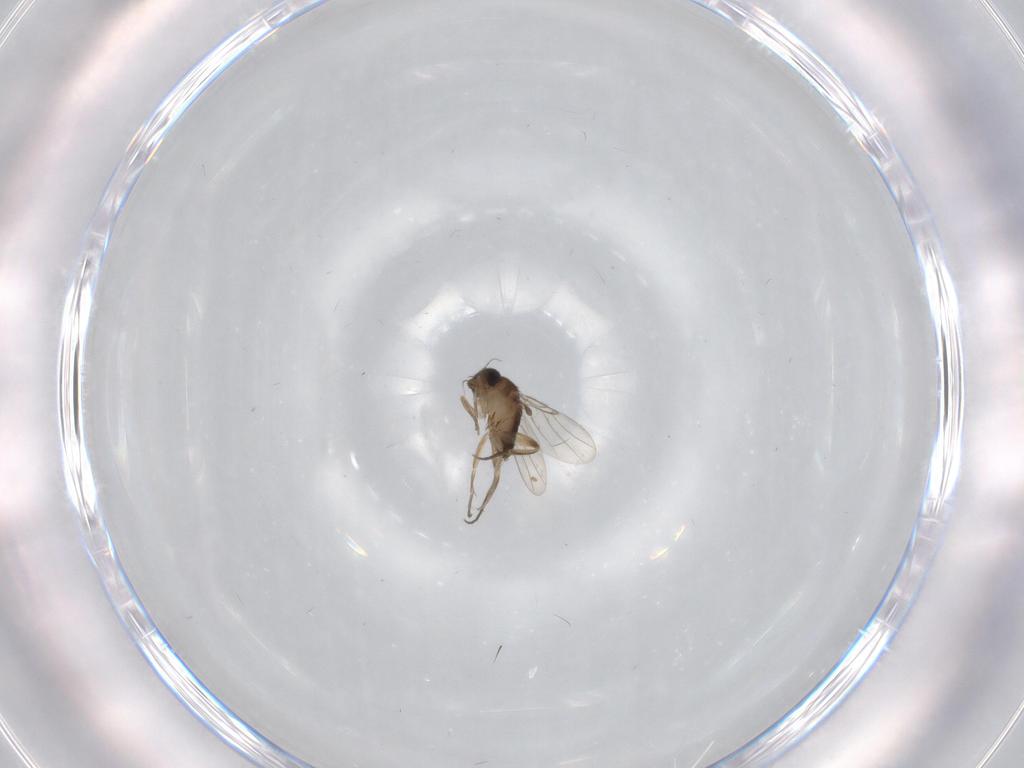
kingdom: Animalia
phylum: Arthropoda
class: Insecta
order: Diptera
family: Phoridae
